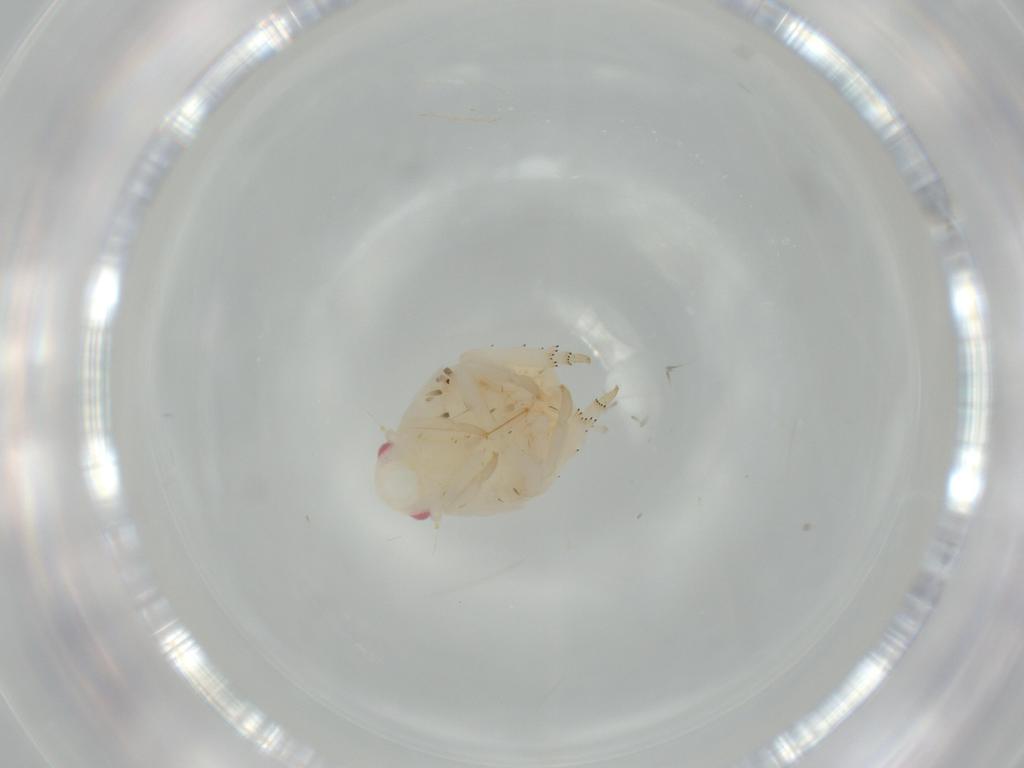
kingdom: Animalia
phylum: Arthropoda
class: Insecta
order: Hemiptera
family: Flatidae
